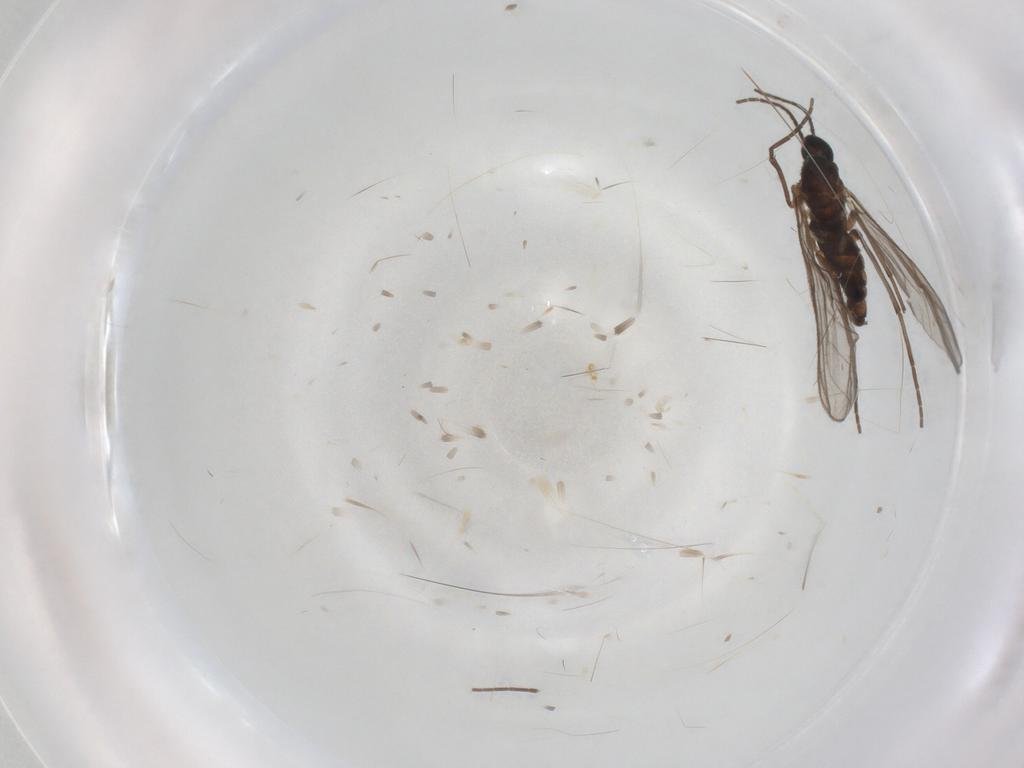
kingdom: Animalia
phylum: Arthropoda
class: Insecta
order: Diptera
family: Sciaridae
